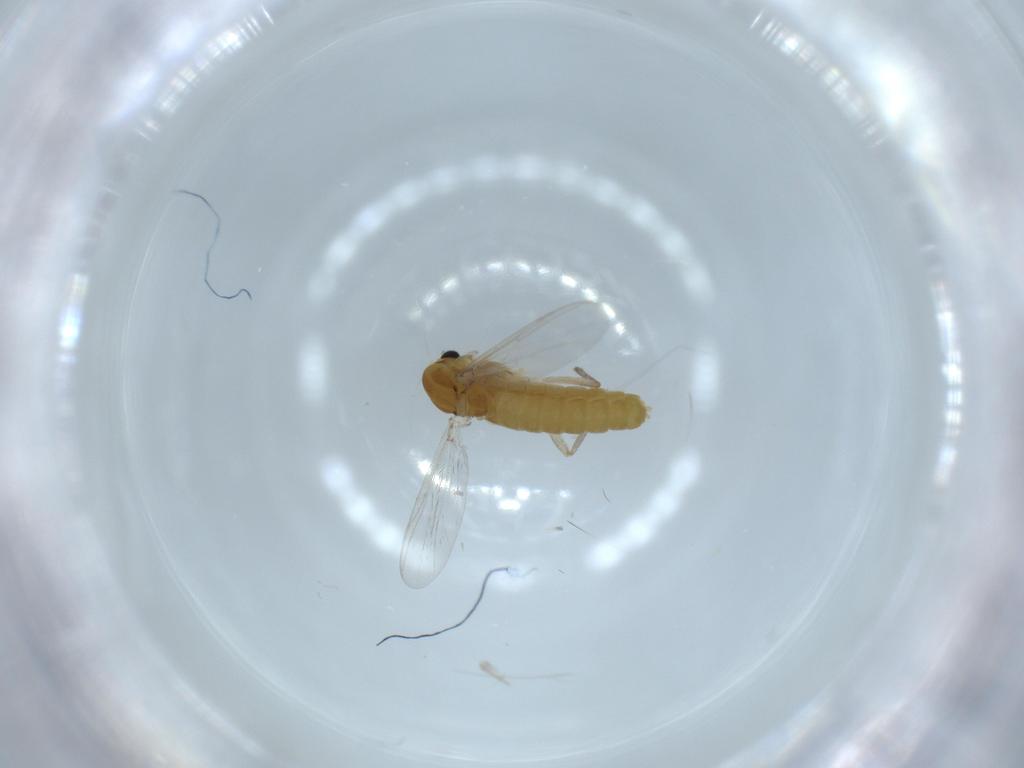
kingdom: Animalia
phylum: Arthropoda
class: Insecta
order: Diptera
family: Chironomidae
